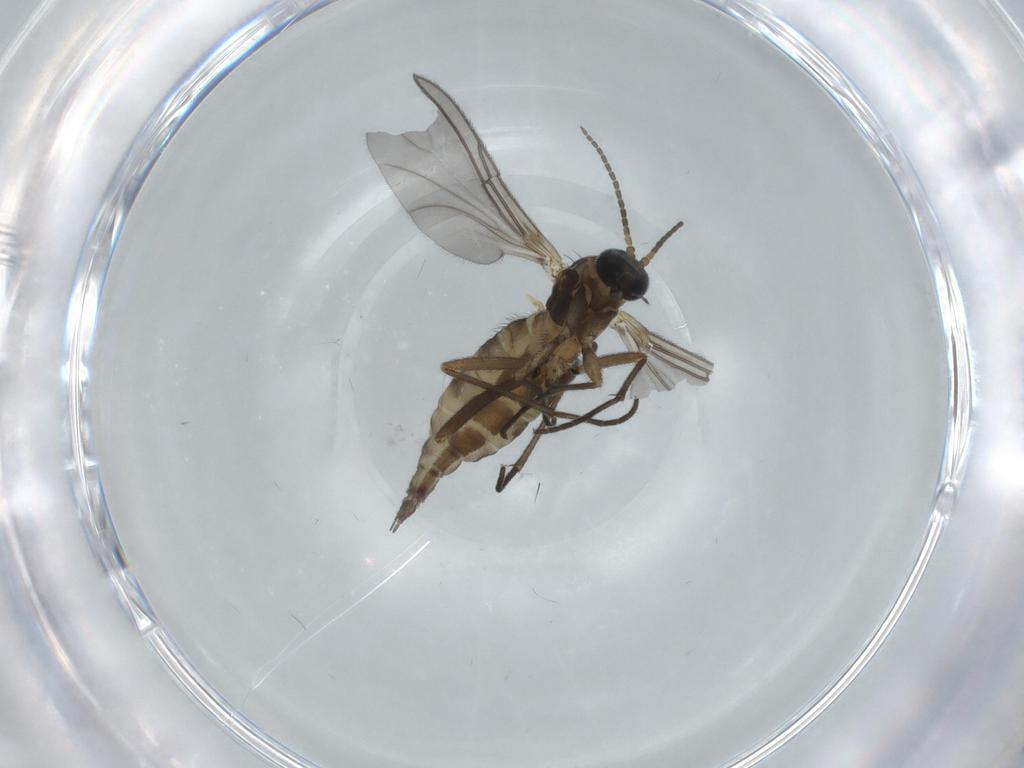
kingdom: Animalia
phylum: Arthropoda
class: Insecta
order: Diptera
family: Sciaridae
